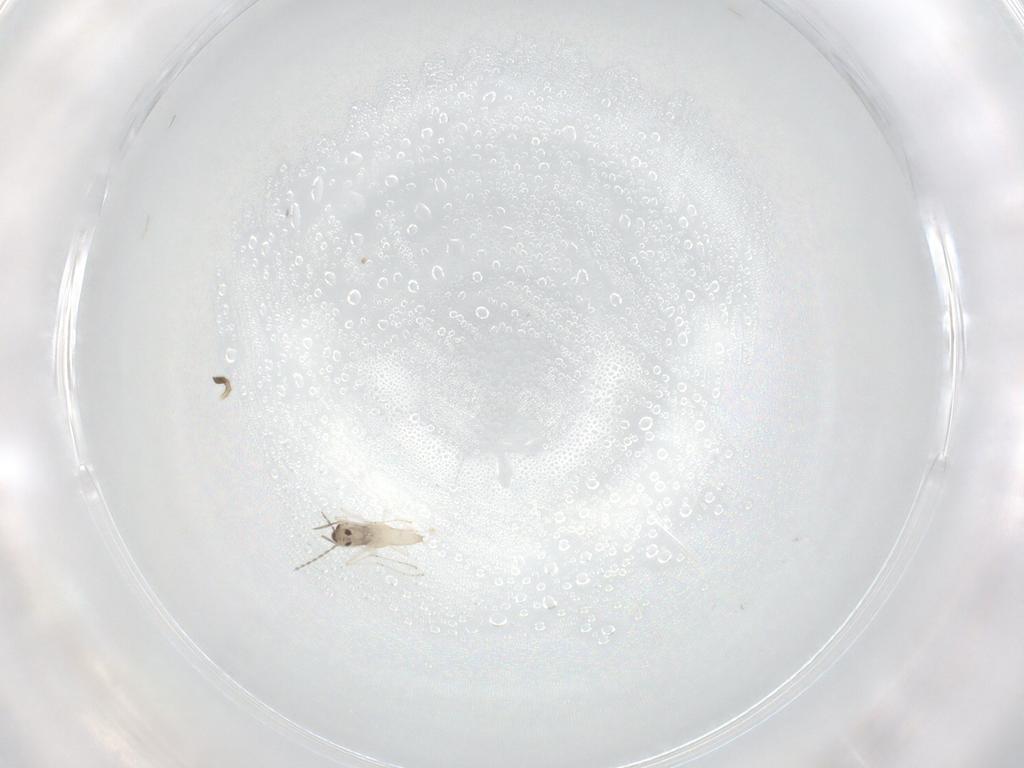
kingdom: Animalia
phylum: Arthropoda
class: Insecta
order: Diptera
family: Cecidomyiidae
